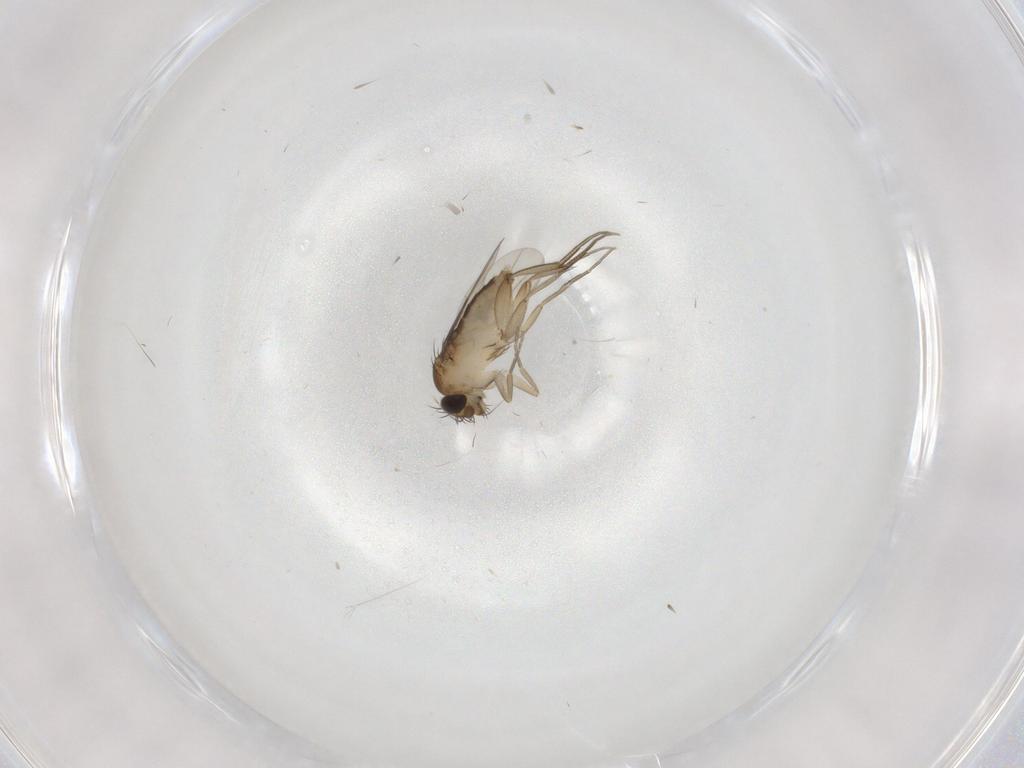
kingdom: Animalia
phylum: Arthropoda
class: Insecta
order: Diptera
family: Phoridae
